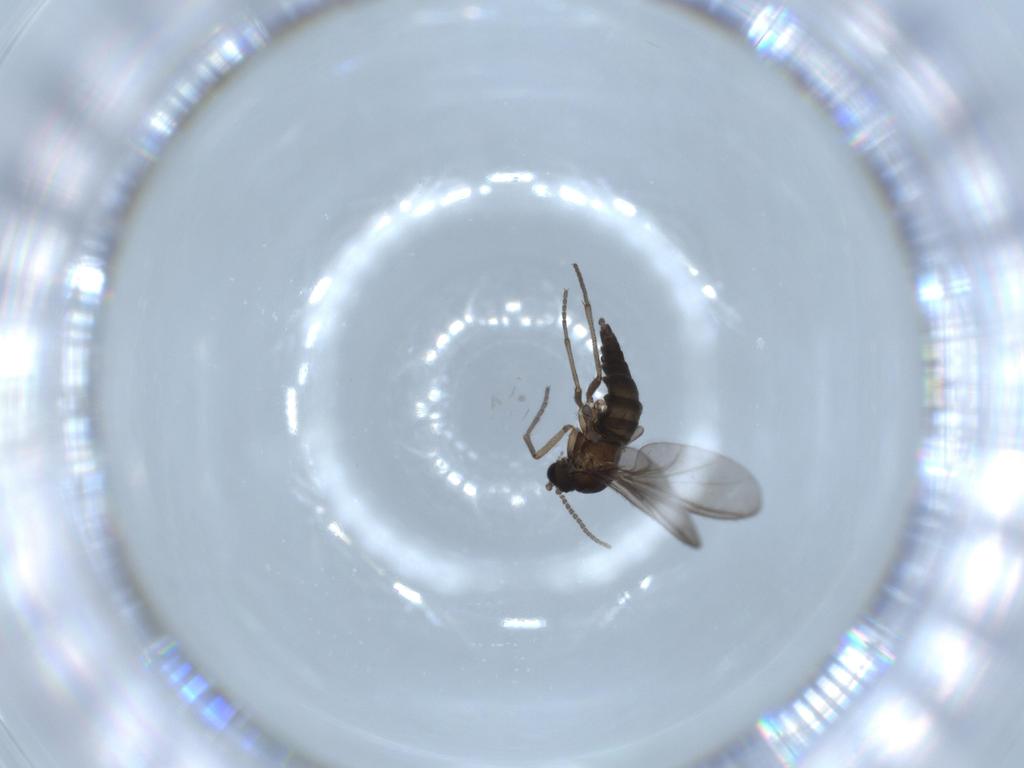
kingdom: Animalia
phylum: Arthropoda
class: Insecta
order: Diptera
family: Sciaridae
